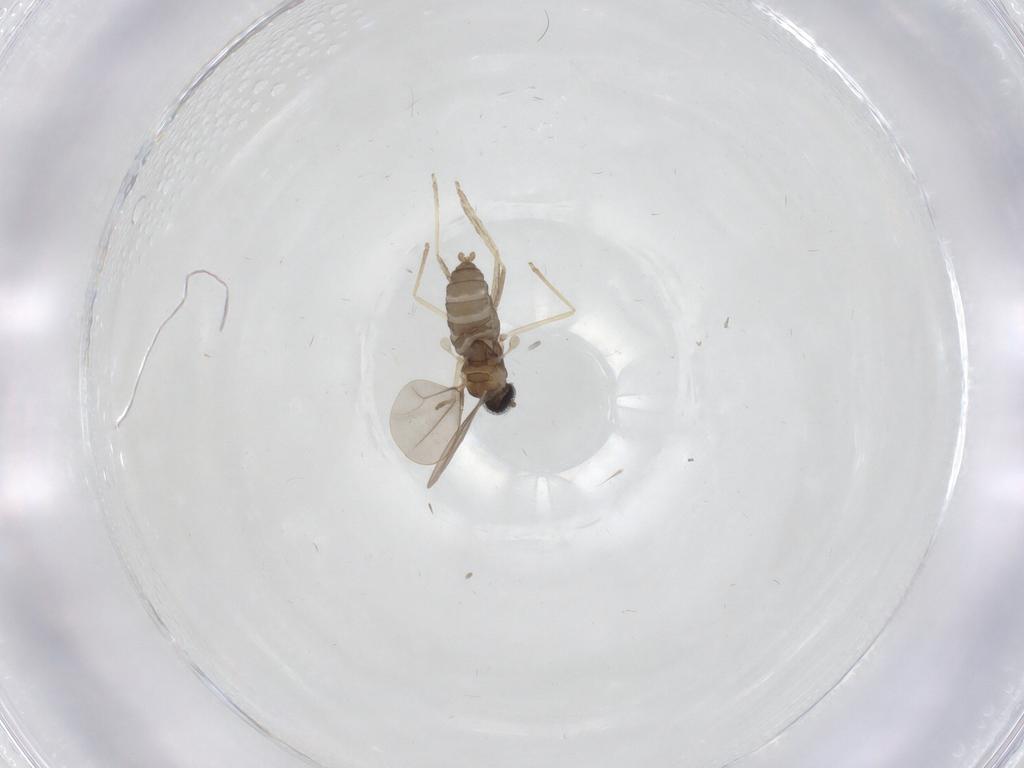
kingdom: Animalia
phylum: Arthropoda
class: Insecta
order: Diptera
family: Cecidomyiidae
